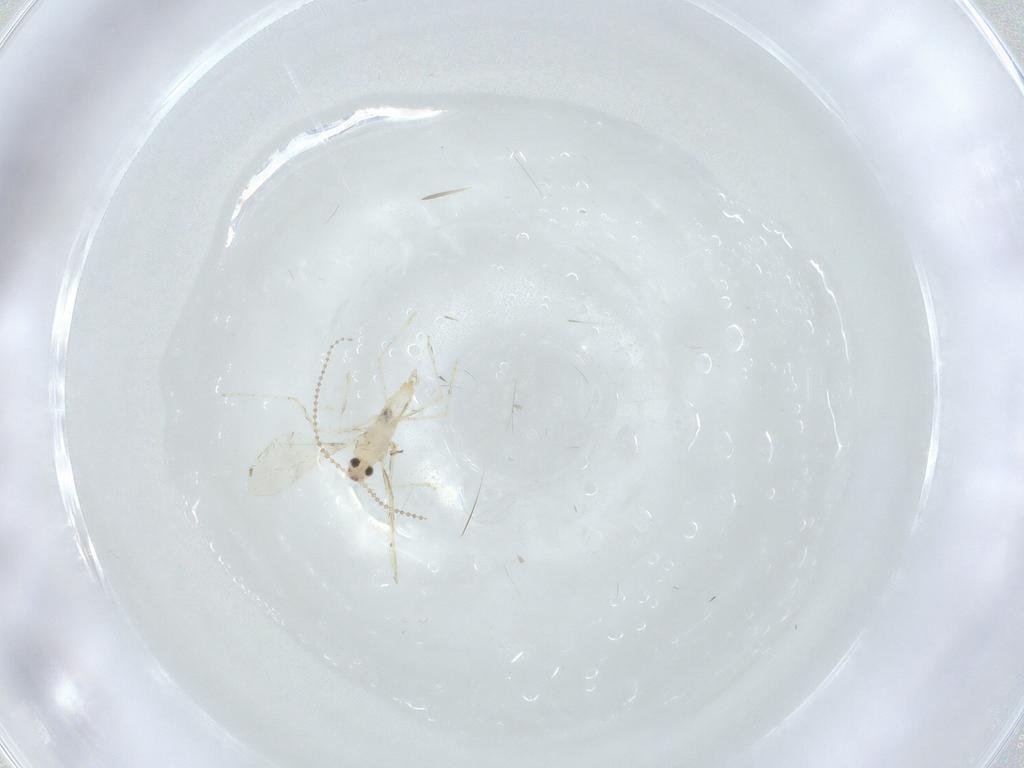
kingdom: Animalia
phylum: Arthropoda
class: Insecta
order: Diptera
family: Cecidomyiidae
